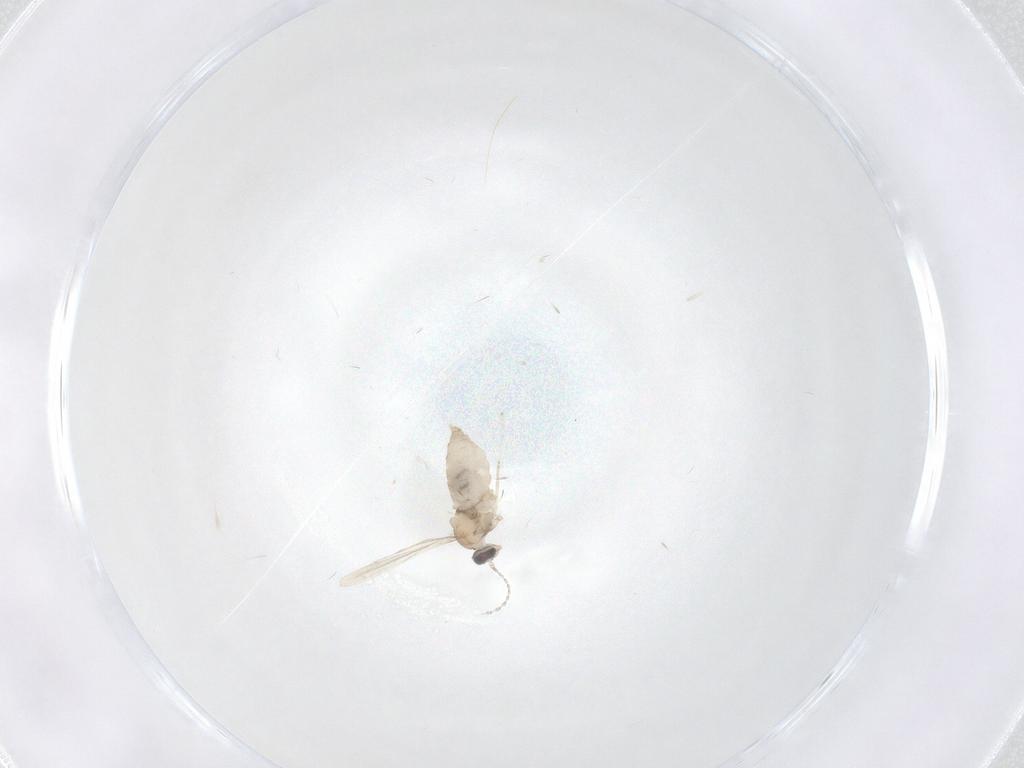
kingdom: Animalia
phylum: Arthropoda
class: Insecta
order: Diptera
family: Cecidomyiidae
